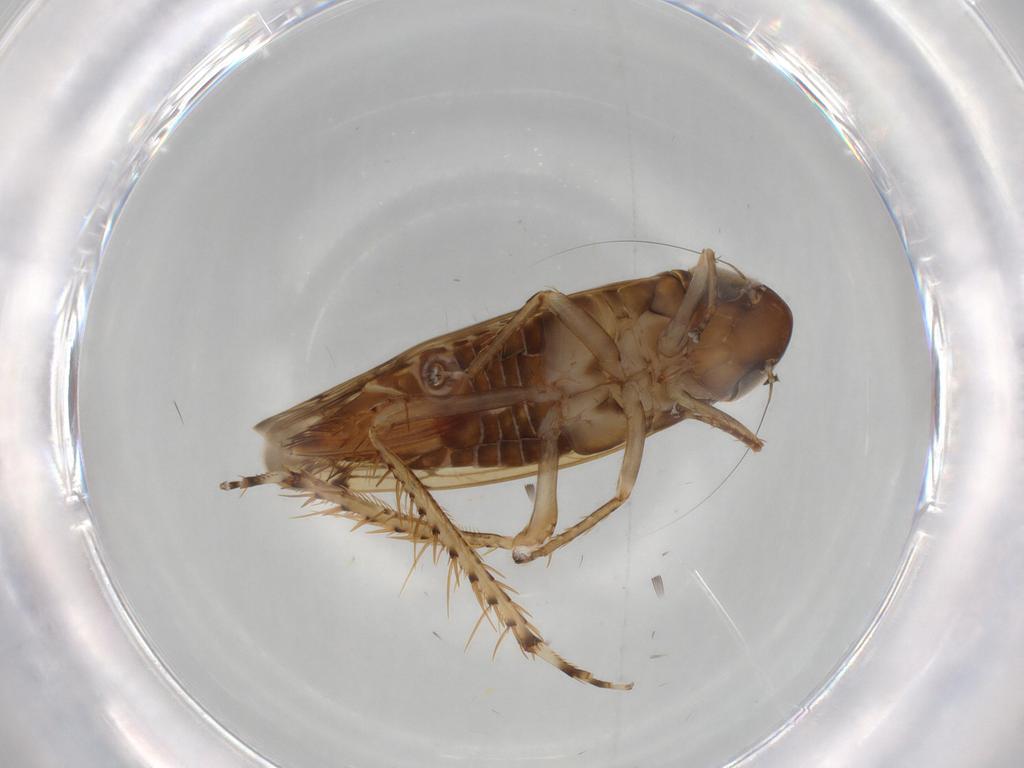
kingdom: Animalia
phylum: Arthropoda
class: Insecta
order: Hemiptera
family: Cicadellidae
